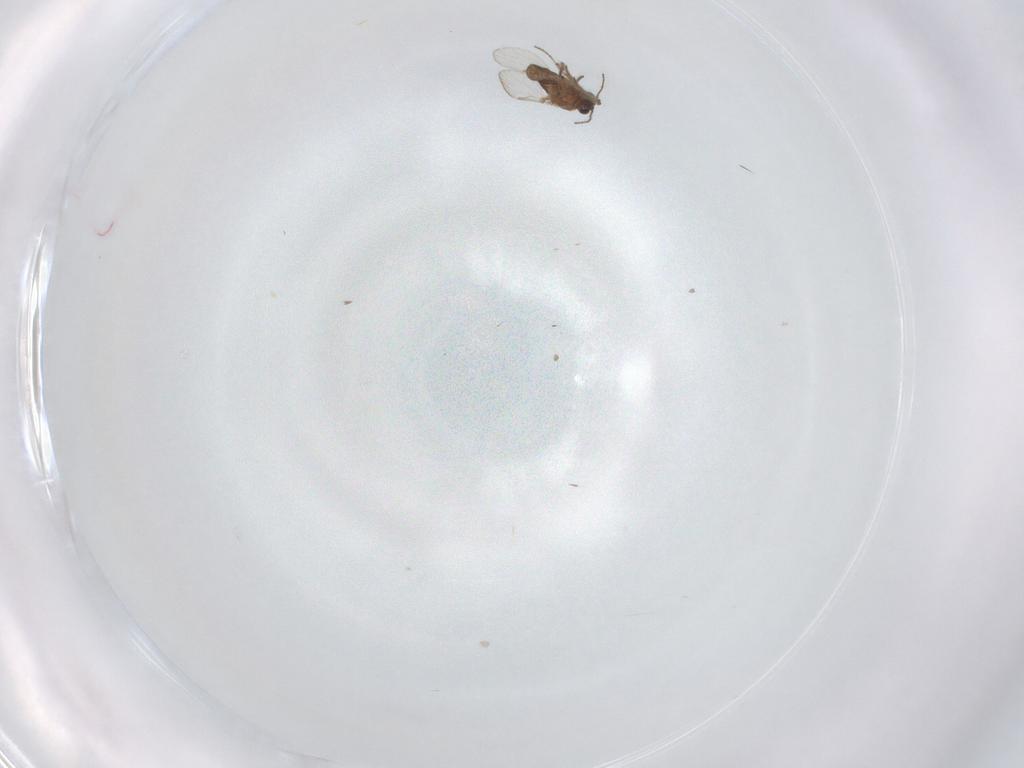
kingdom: Animalia
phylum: Arthropoda
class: Insecta
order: Diptera
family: Ceratopogonidae
